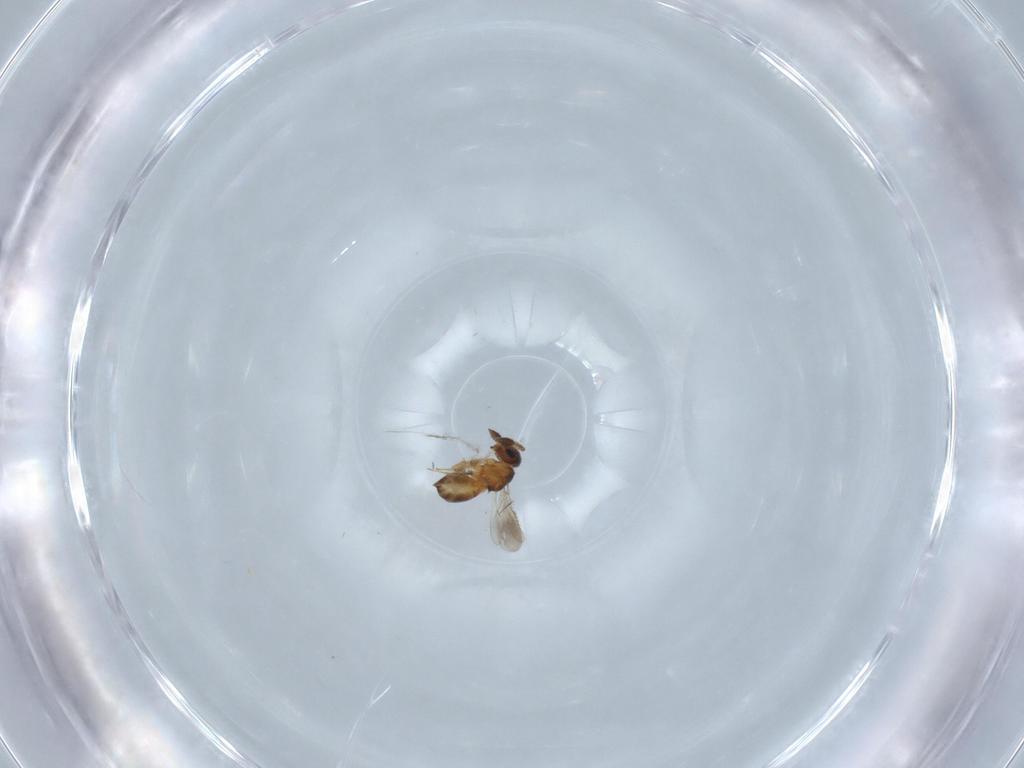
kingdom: Animalia
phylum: Arthropoda
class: Insecta
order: Hymenoptera
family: Scelionidae
